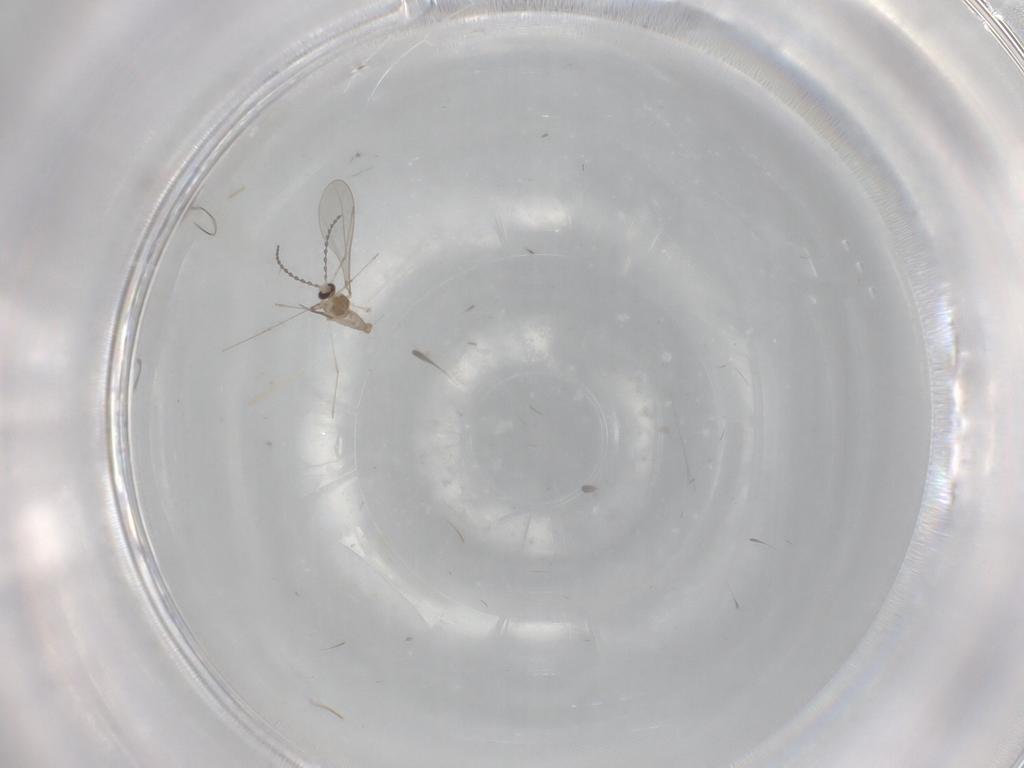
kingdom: Animalia
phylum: Arthropoda
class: Insecta
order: Diptera
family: Cecidomyiidae
